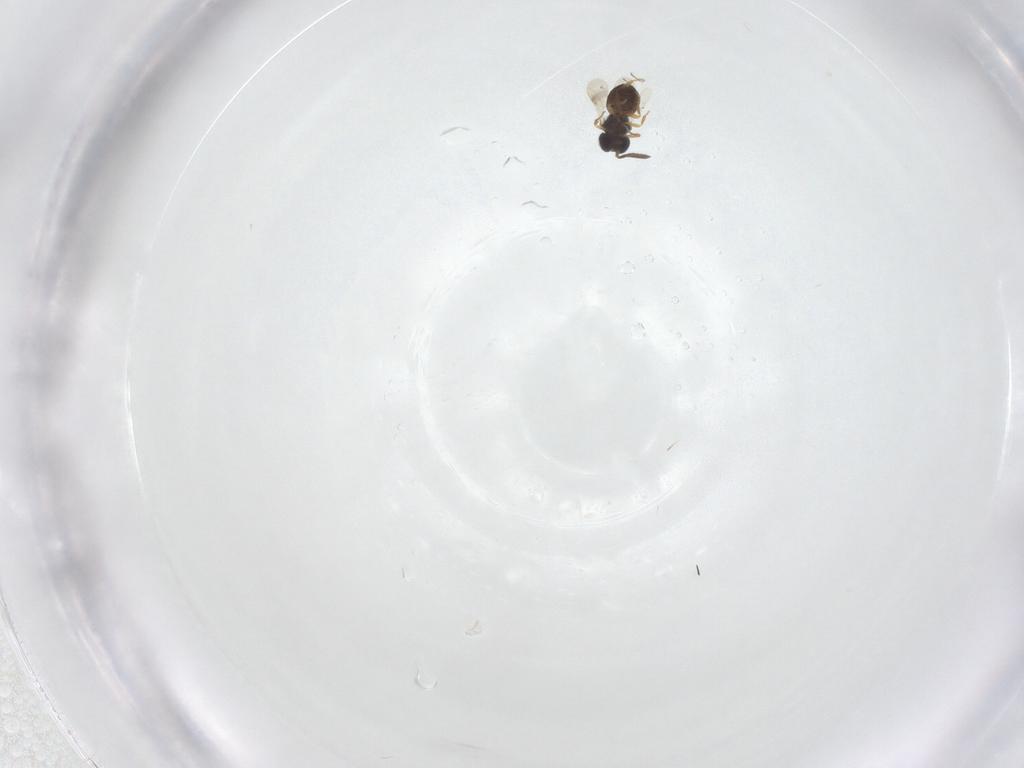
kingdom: Animalia
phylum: Arthropoda
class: Insecta
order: Hymenoptera
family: Scelionidae
